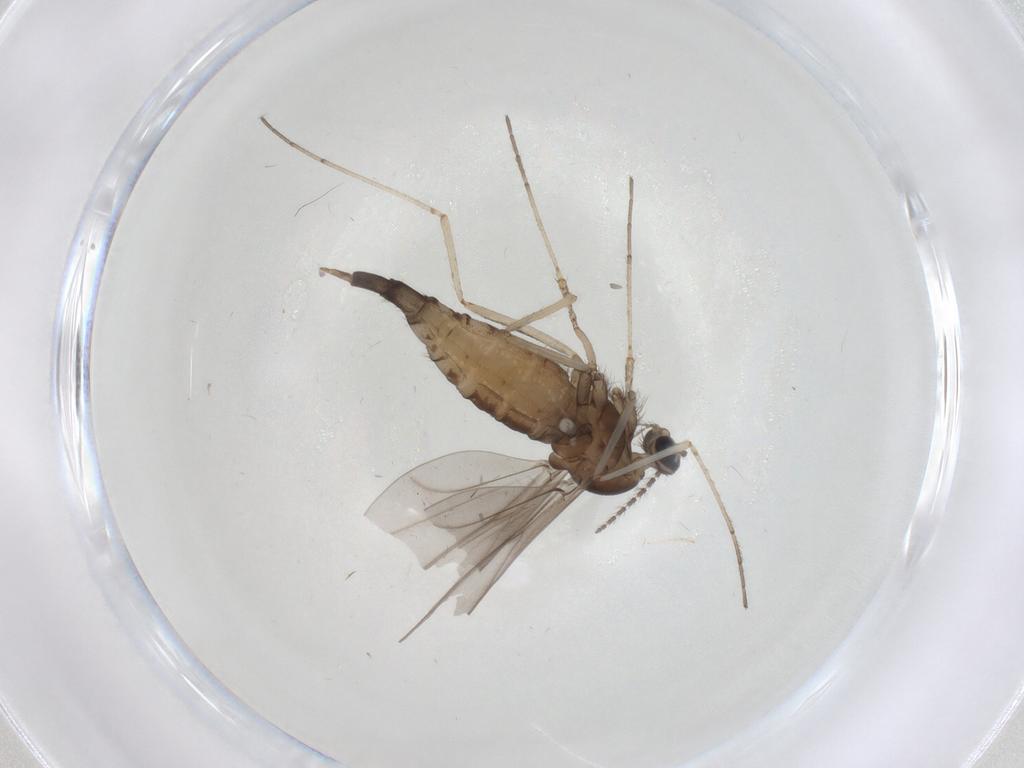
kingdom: Animalia
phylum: Arthropoda
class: Insecta
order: Diptera
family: Cecidomyiidae
